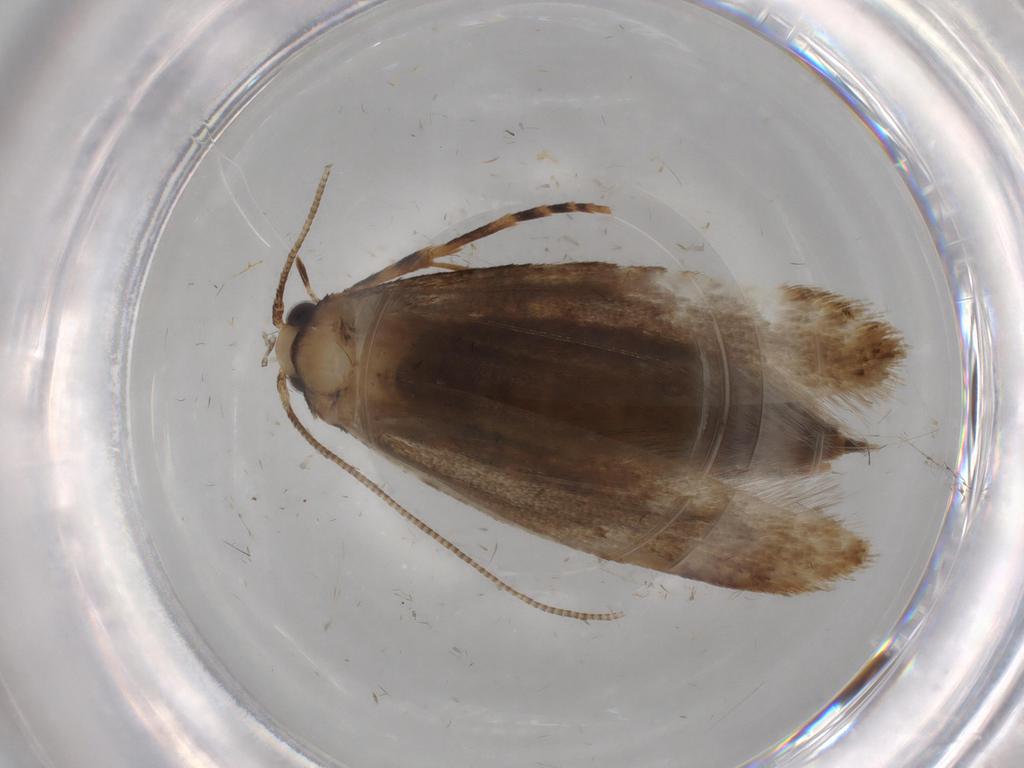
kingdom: Animalia
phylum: Arthropoda
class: Insecta
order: Lepidoptera
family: Tineidae
